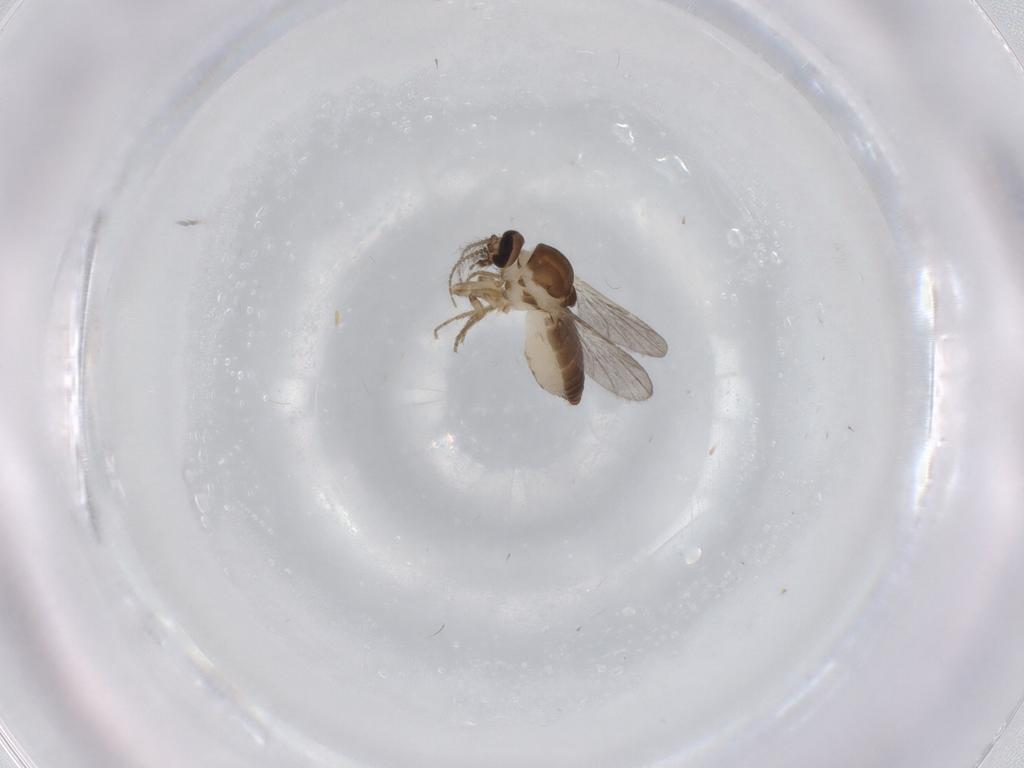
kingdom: Animalia
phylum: Arthropoda
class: Insecta
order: Diptera
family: Ceratopogonidae
